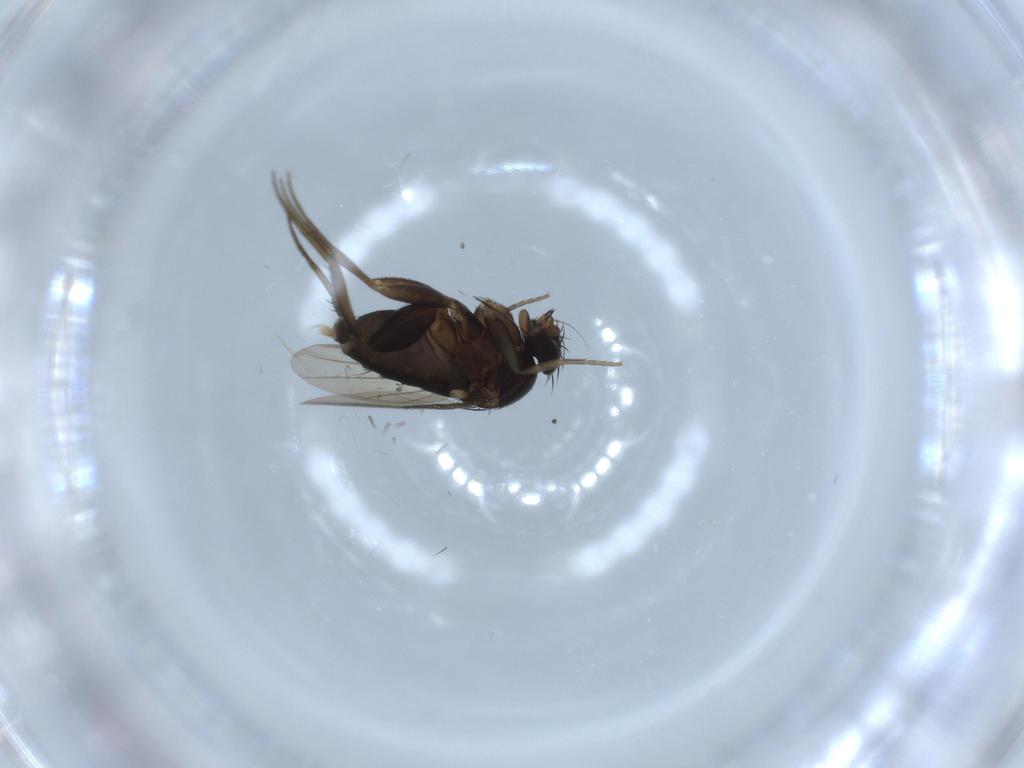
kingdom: Animalia
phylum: Arthropoda
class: Insecta
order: Diptera
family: Phoridae
